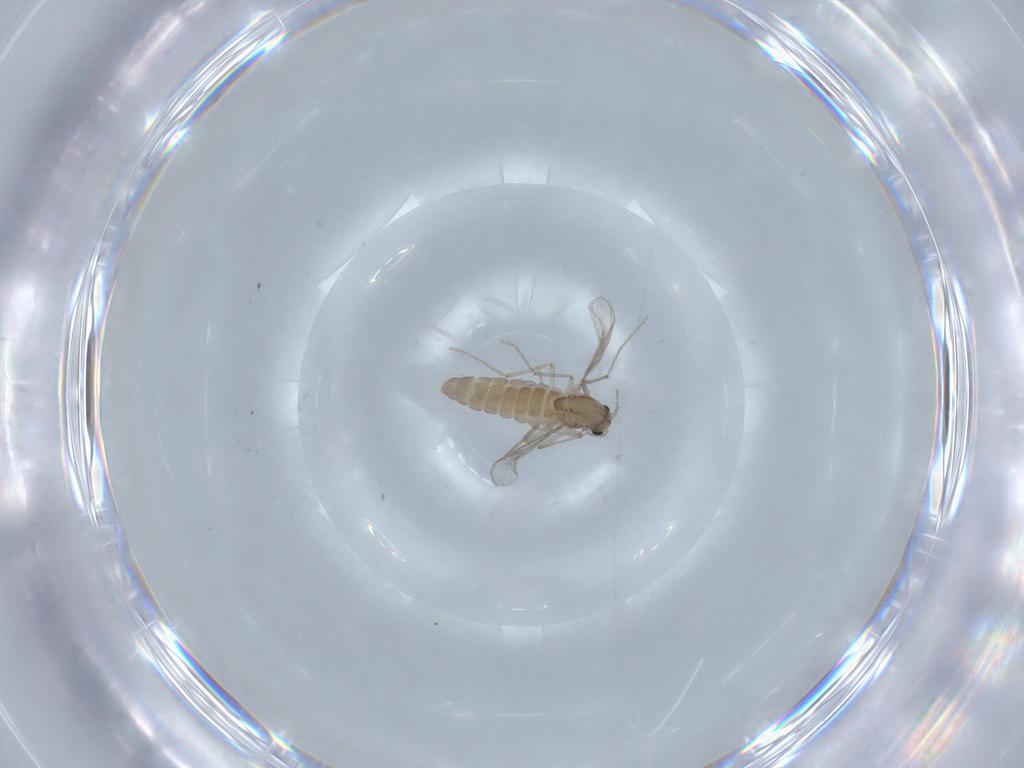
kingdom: Animalia
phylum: Arthropoda
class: Insecta
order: Diptera
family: Chironomidae
